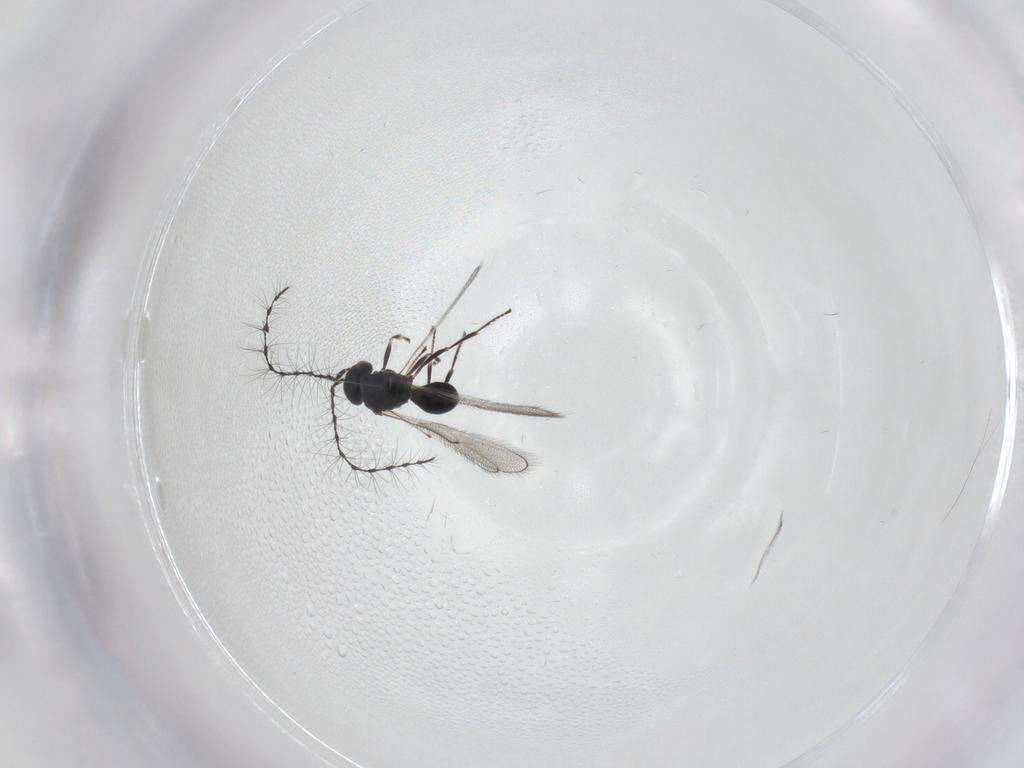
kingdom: Animalia
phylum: Arthropoda
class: Insecta
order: Hymenoptera
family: Scelionidae
